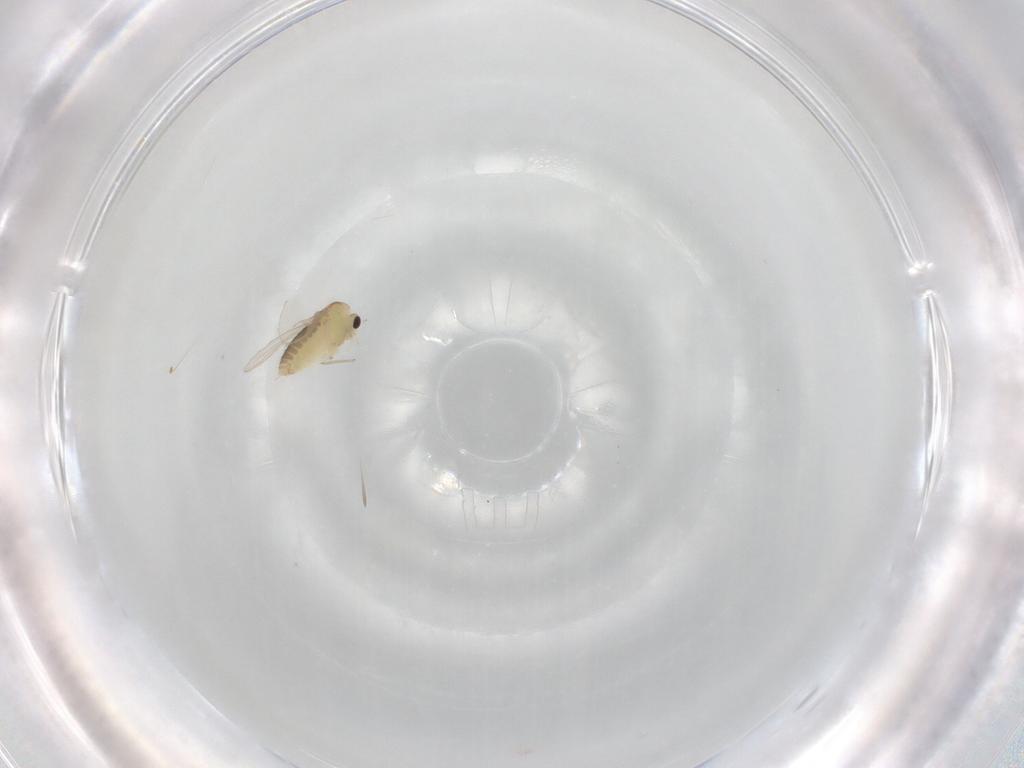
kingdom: Animalia
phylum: Arthropoda
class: Insecta
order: Diptera
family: Chironomidae
